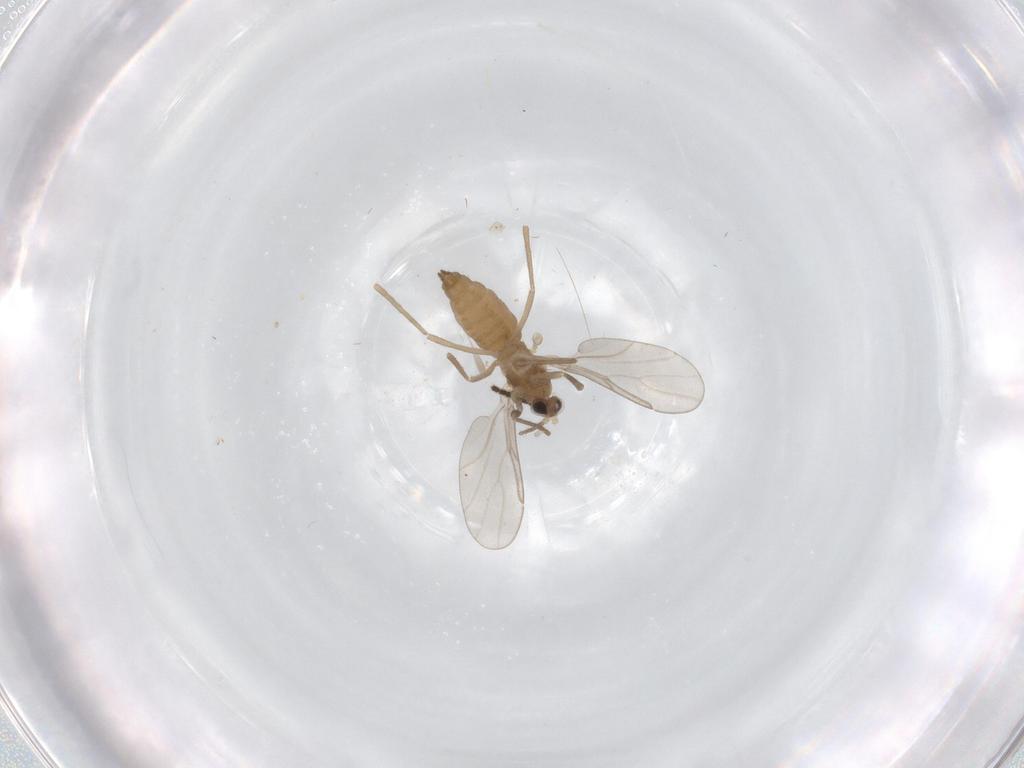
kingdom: Animalia
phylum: Arthropoda
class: Insecta
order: Diptera
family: Sciaridae
